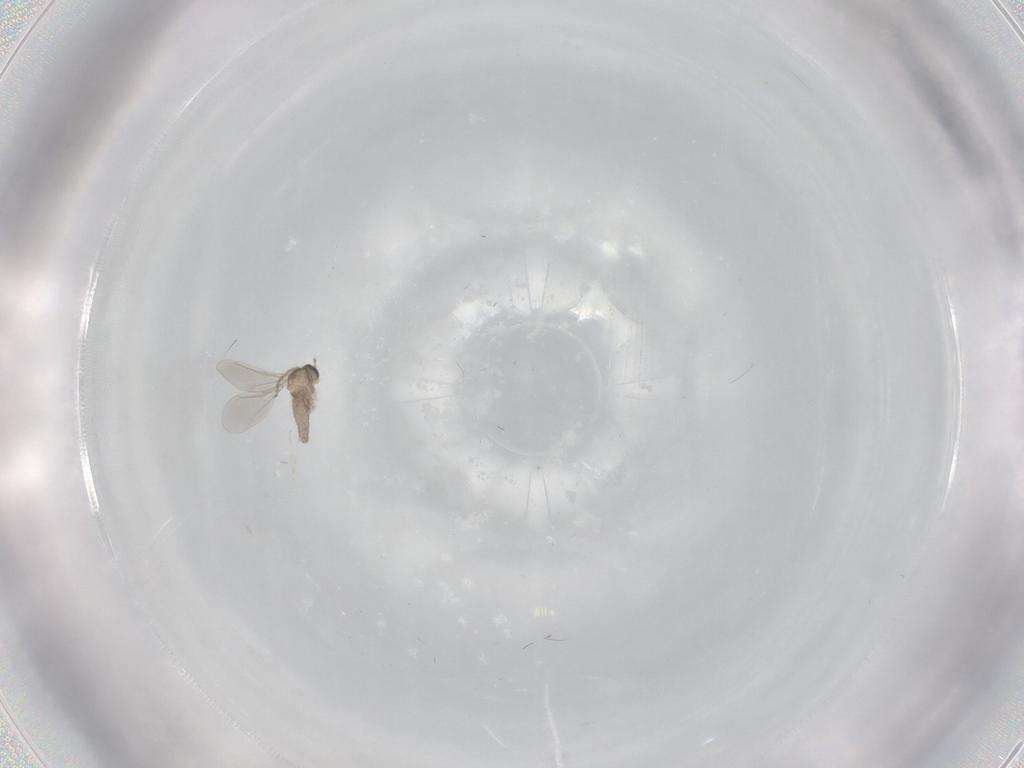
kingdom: Animalia
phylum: Arthropoda
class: Insecta
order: Diptera
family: Cecidomyiidae
